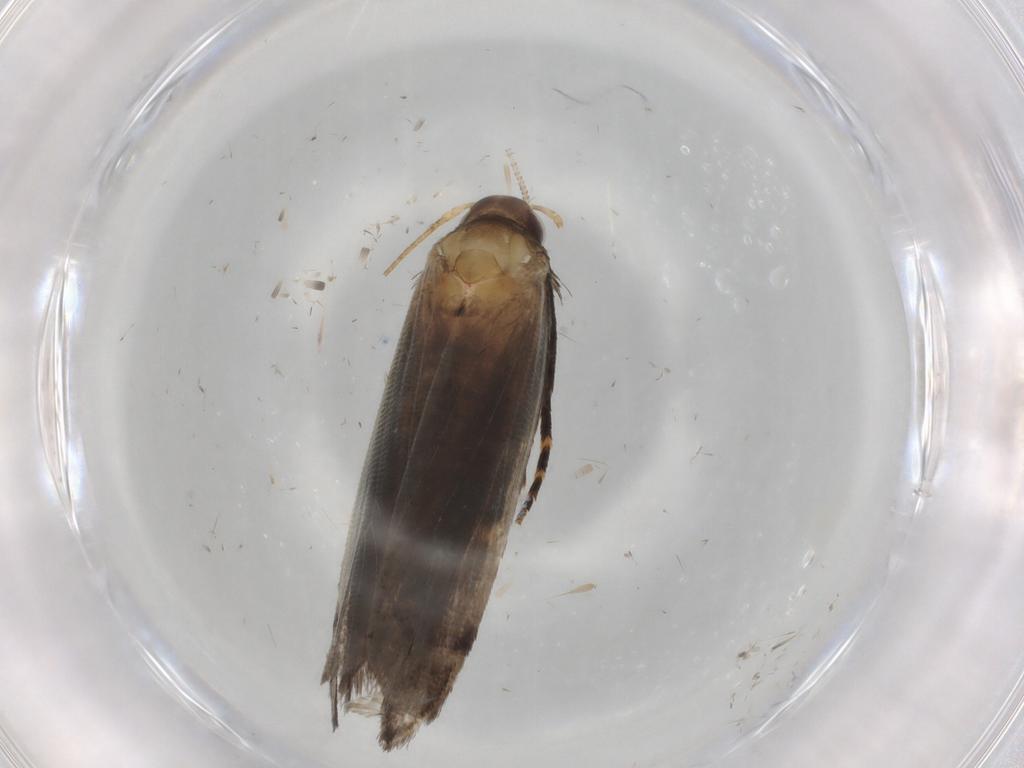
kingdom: Animalia
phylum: Arthropoda
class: Insecta
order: Lepidoptera
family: Gelechiidae
